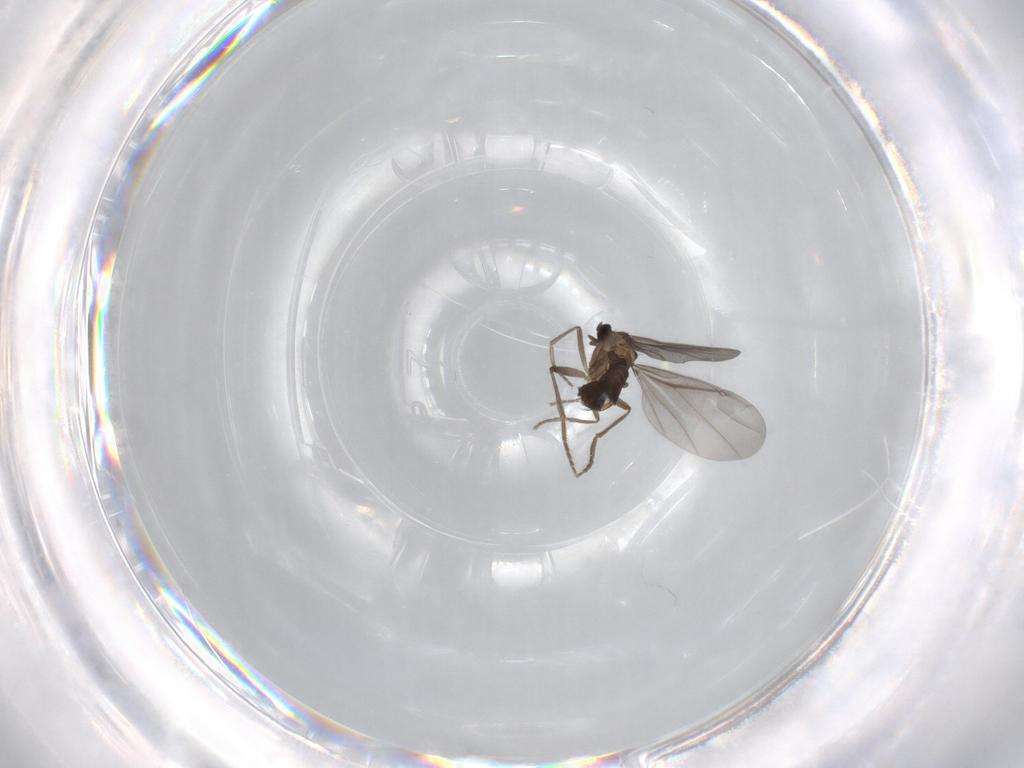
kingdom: Animalia
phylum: Arthropoda
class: Insecta
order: Diptera
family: Phoridae
